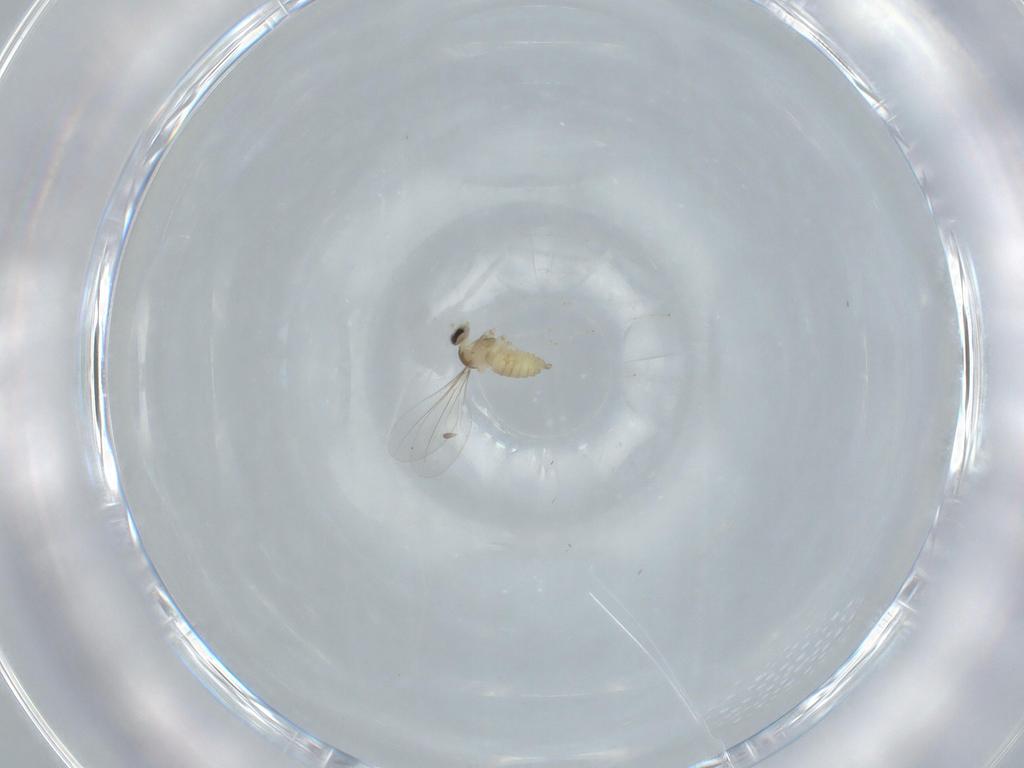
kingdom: Animalia
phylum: Arthropoda
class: Insecta
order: Diptera
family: Cecidomyiidae
